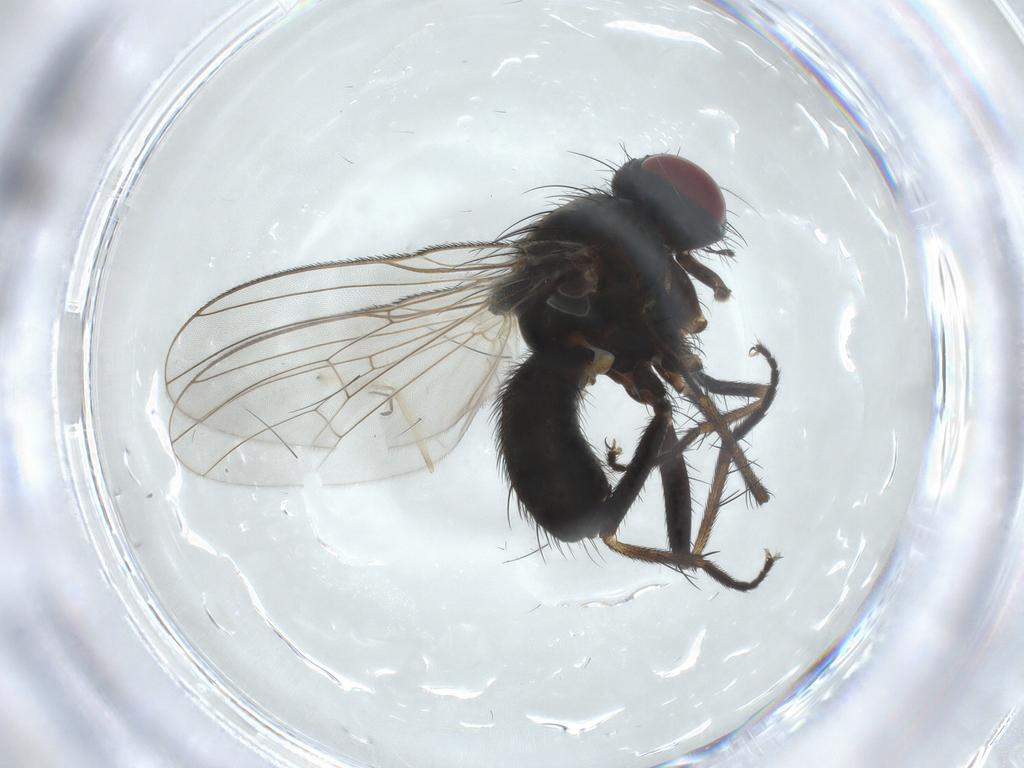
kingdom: Animalia
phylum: Arthropoda
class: Insecta
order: Diptera
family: Muscidae
